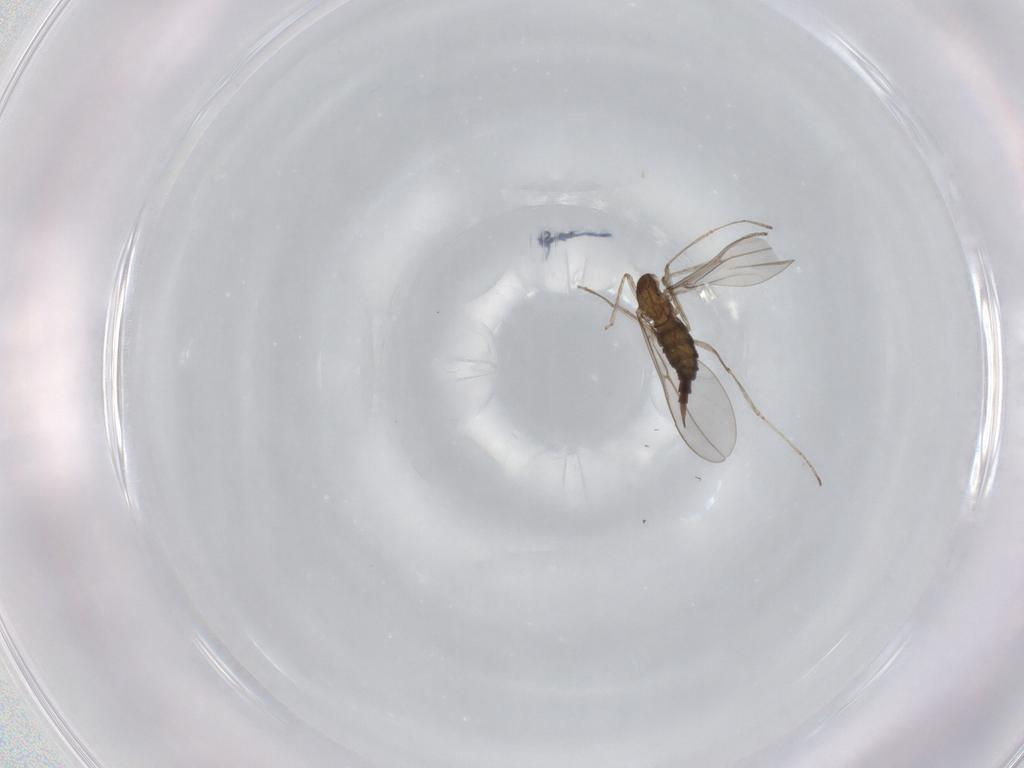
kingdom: Animalia
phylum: Arthropoda
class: Insecta
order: Diptera
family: Cecidomyiidae
